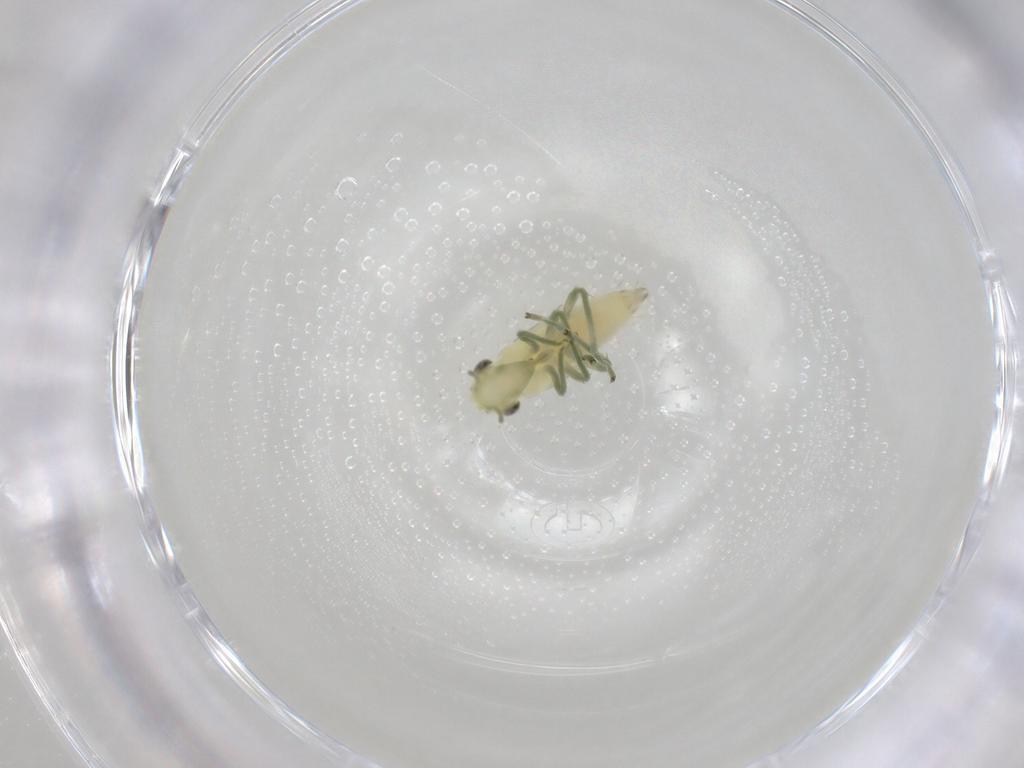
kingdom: Animalia
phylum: Arthropoda
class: Insecta
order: Hemiptera
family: Cicadellidae
